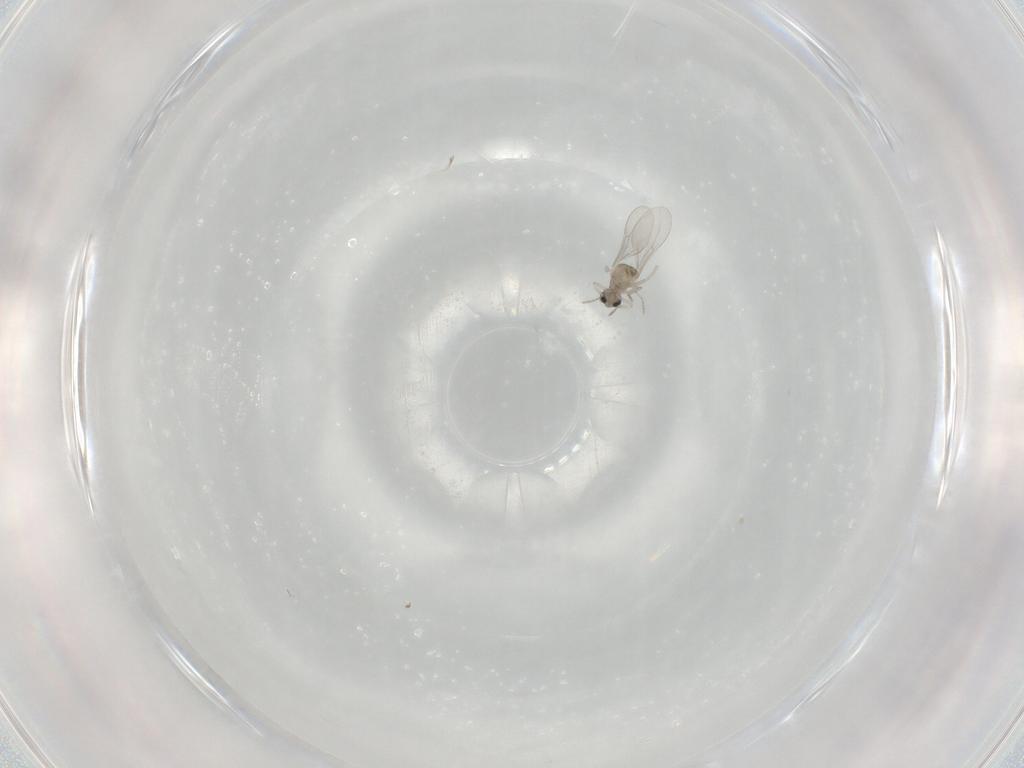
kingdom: Animalia
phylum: Arthropoda
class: Insecta
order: Diptera
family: Cecidomyiidae
